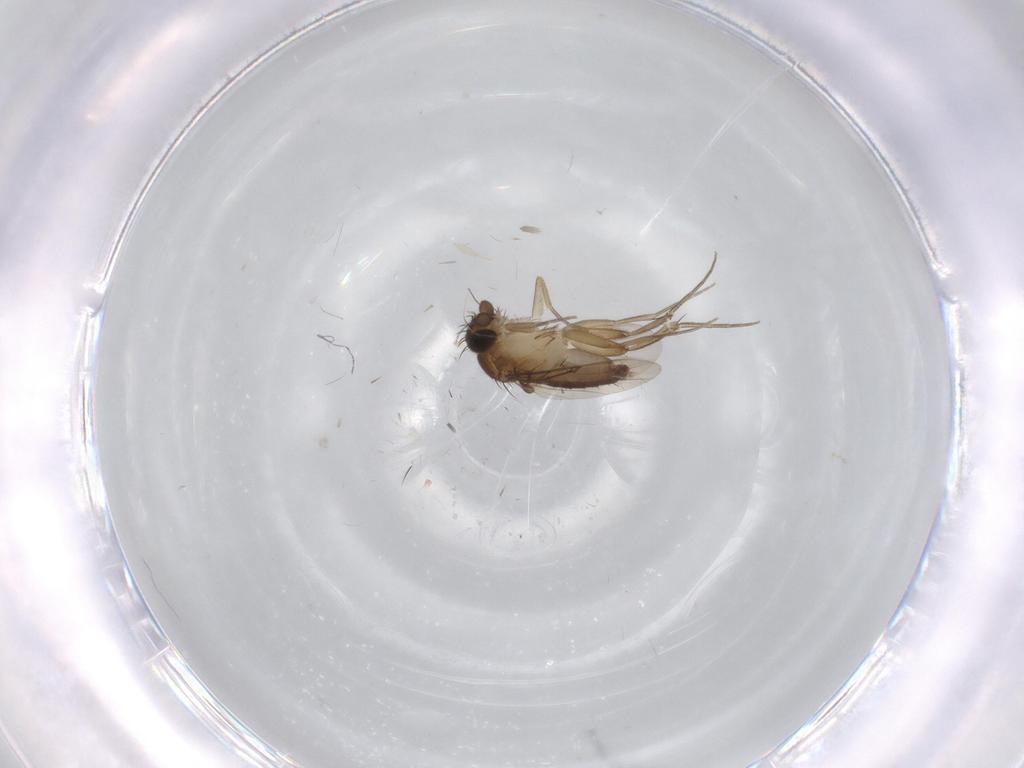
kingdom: Animalia
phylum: Arthropoda
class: Insecta
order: Diptera
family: Phoridae
